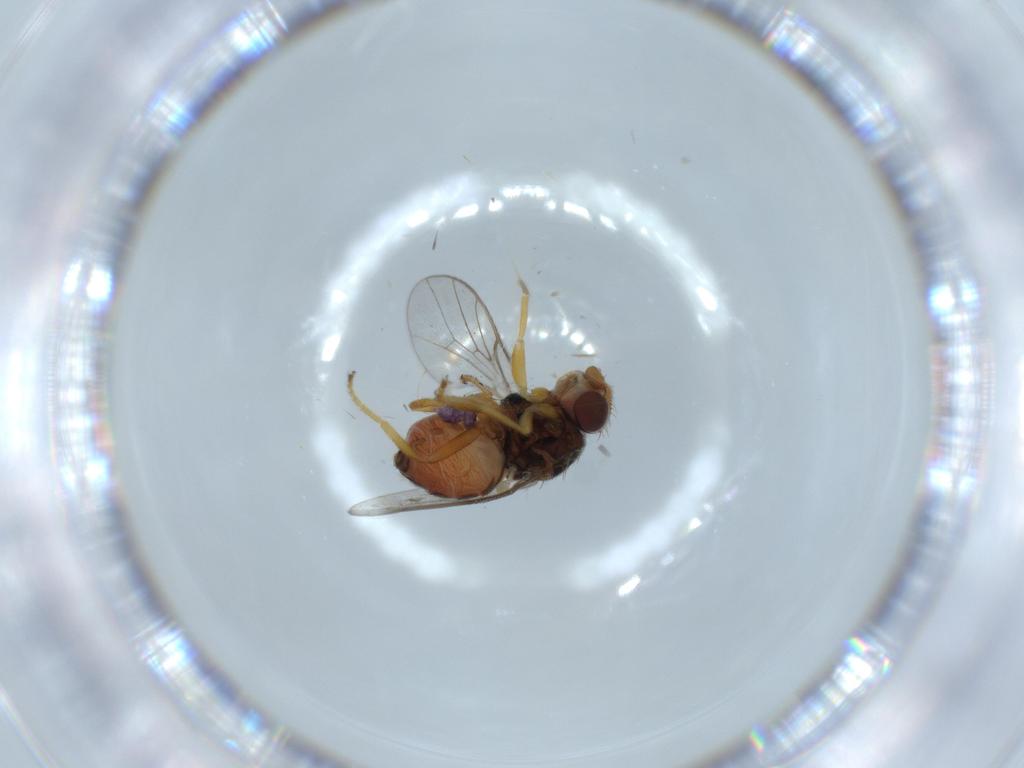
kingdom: Animalia
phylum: Arthropoda
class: Insecta
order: Diptera
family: Chloropidae
